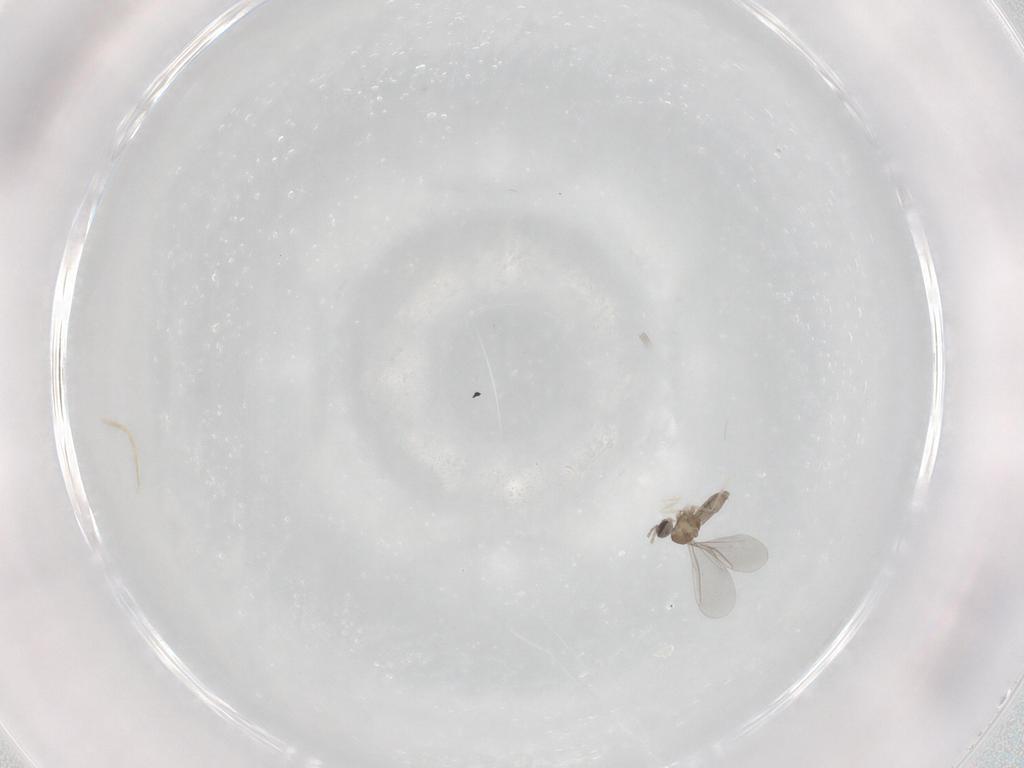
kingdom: Animalia
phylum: Arthropoda
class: Insecta
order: Diptera
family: Cecidomyiidae
